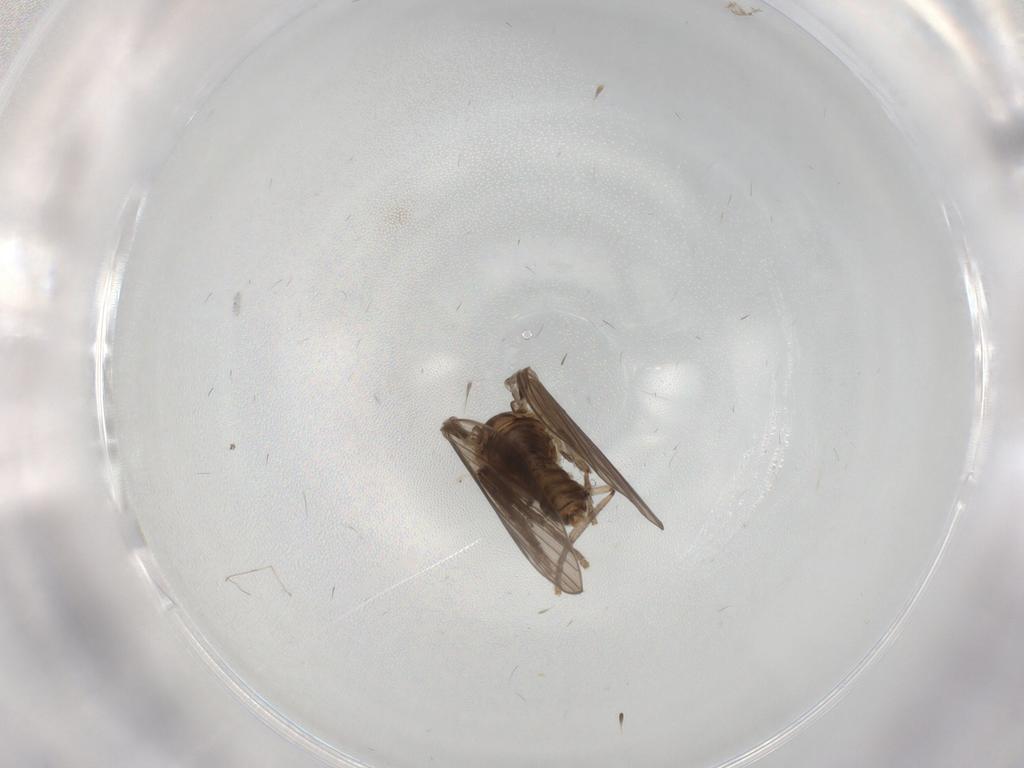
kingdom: Animalia
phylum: Arthropoda
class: Insecta
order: Diptera
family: Psychodidae
